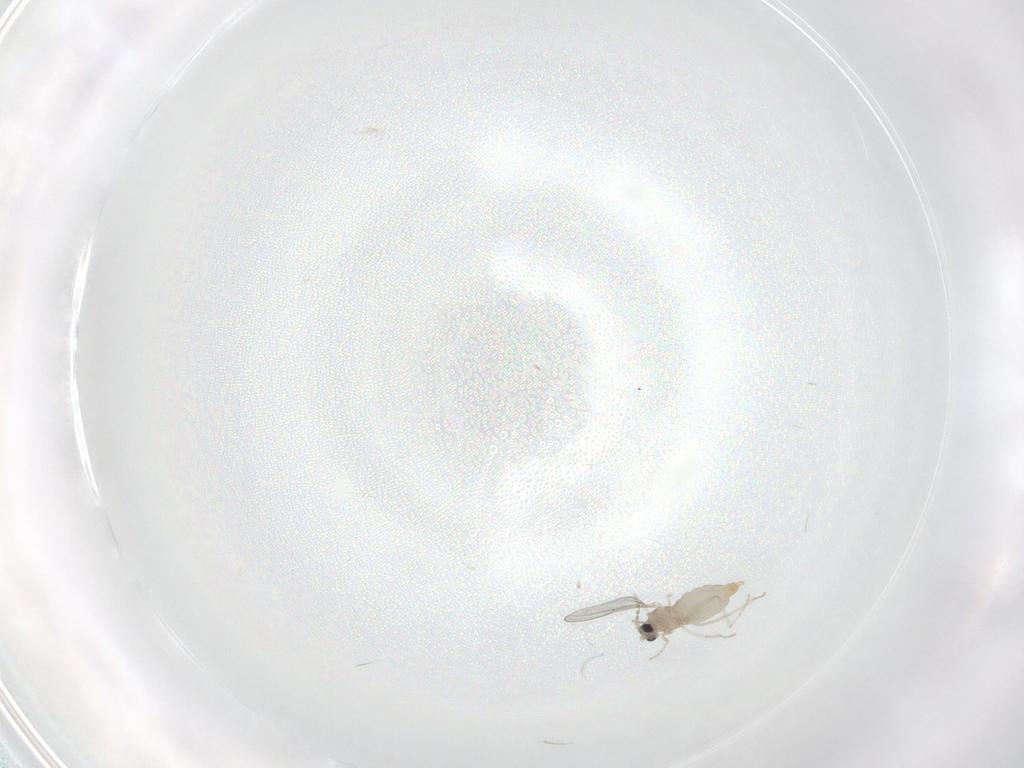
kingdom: Animalia
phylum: Arthropoda
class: Insecta
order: Diptera
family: Cecidomyiidae
